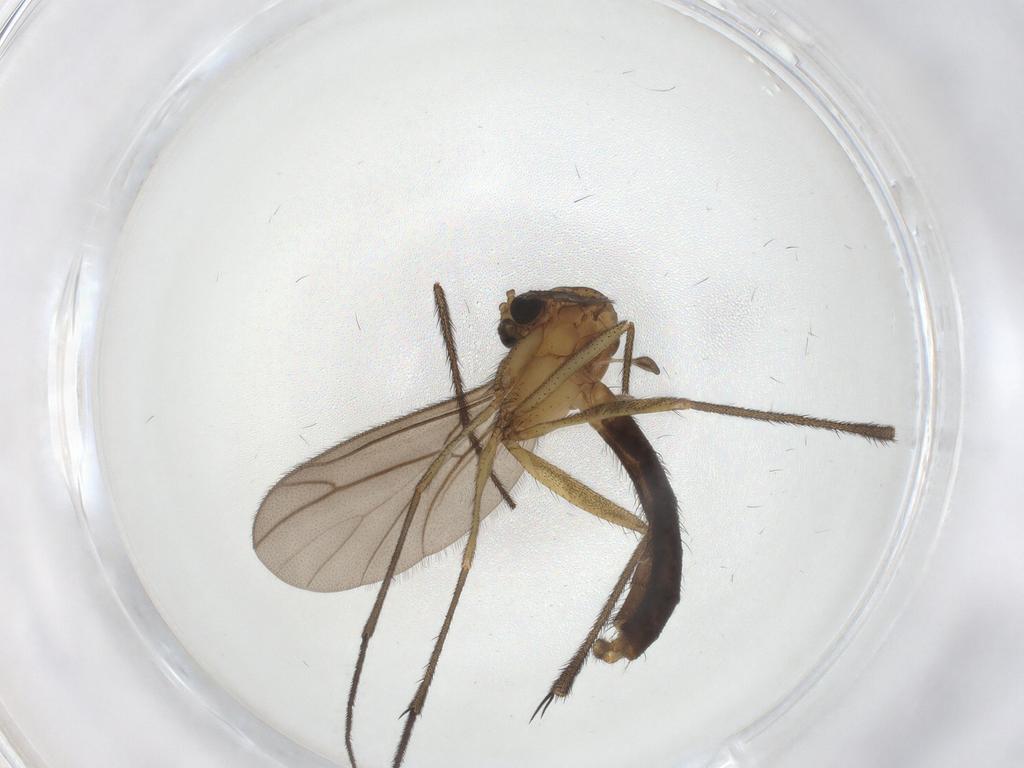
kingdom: Animalia
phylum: Arthropoda
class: Insecta
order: Diptera
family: Ditomyiidae
